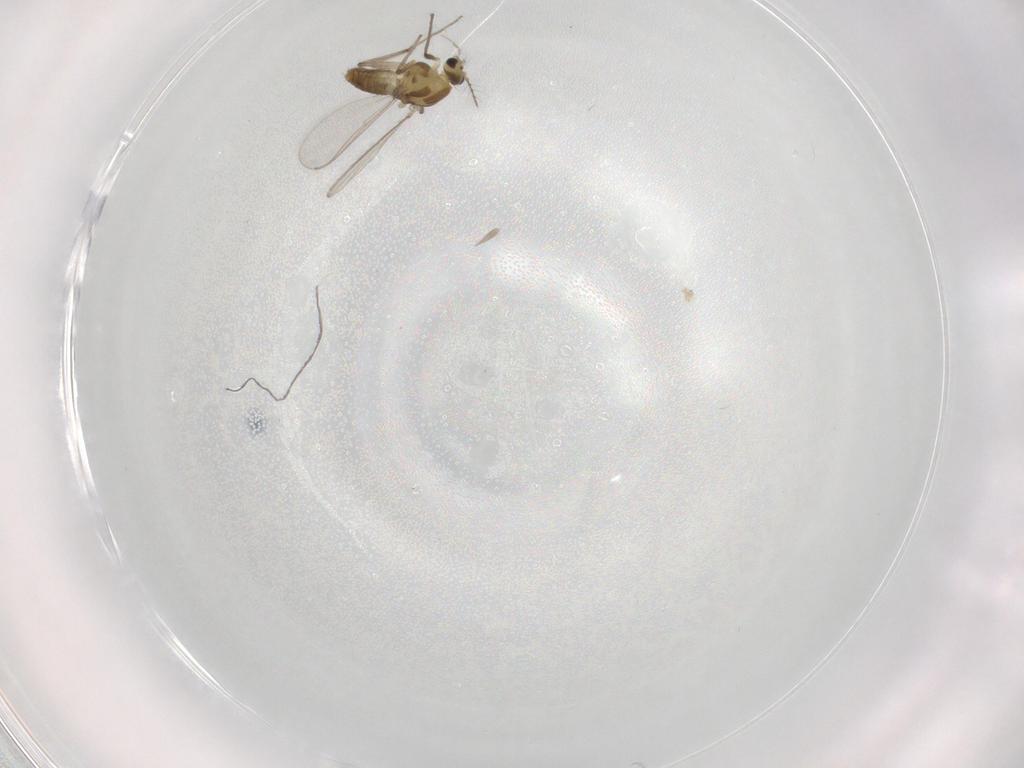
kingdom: Animalia
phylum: Arthropoda
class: Insecta
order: Diptera
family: Chironomidae
